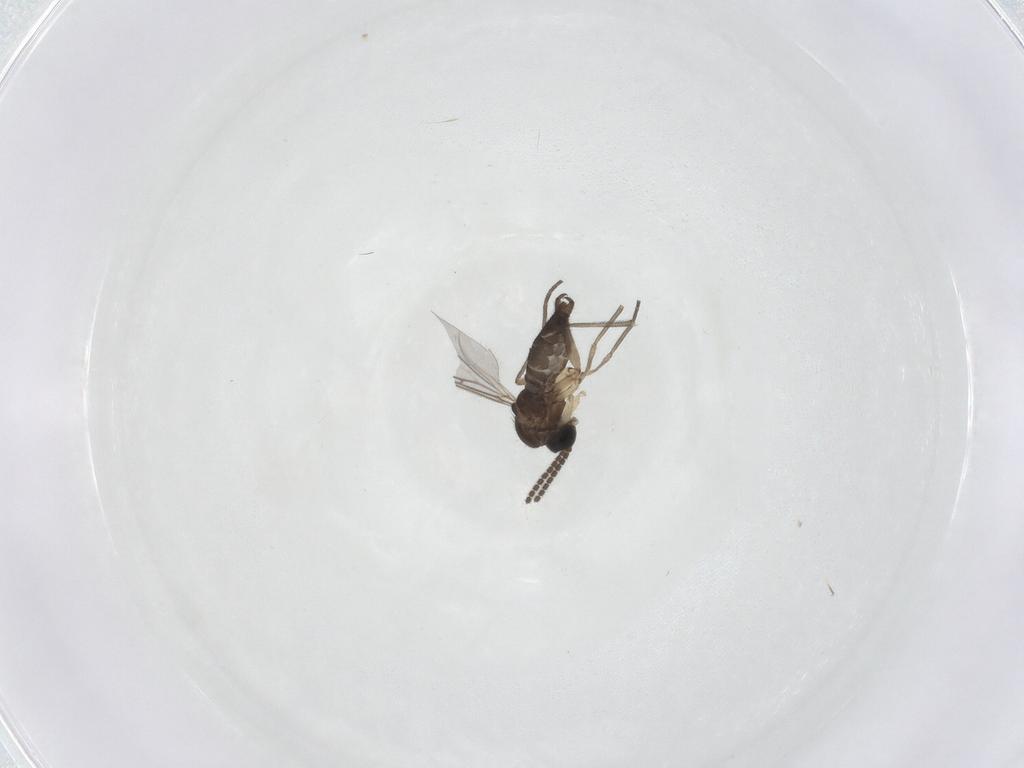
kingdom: Animalia
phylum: Arthropoda
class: Insecta
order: Diptera
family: Sciaridae
